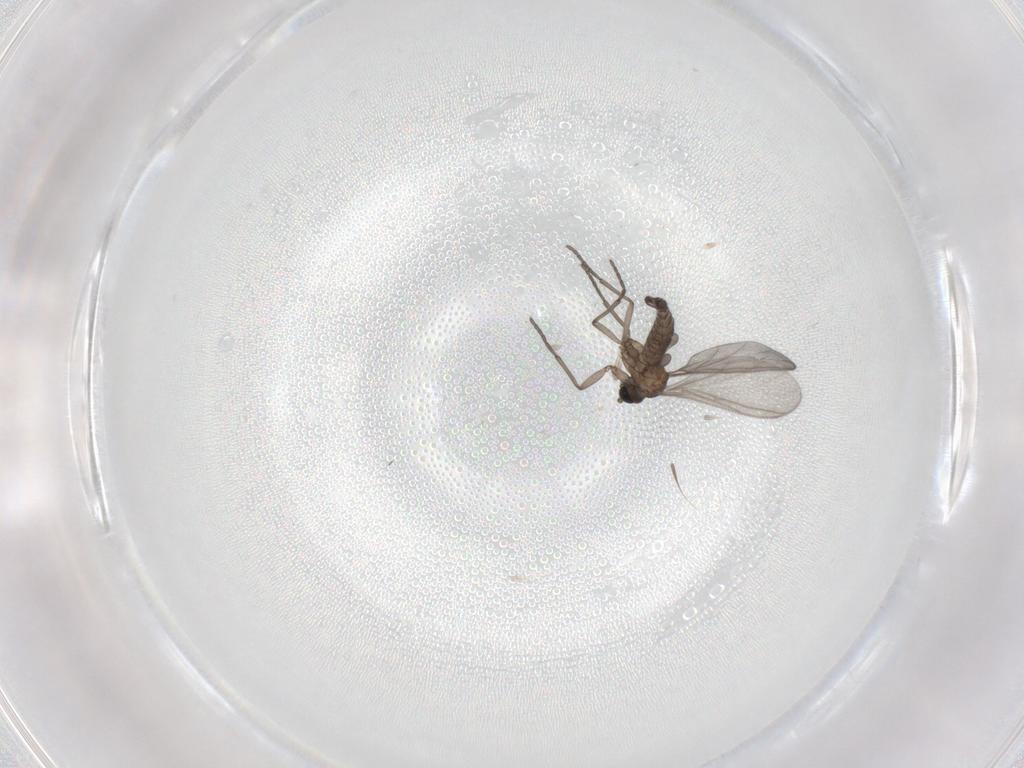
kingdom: Animalia
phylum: Arthropoda
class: Insecta
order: Diptera
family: Sciaridae
